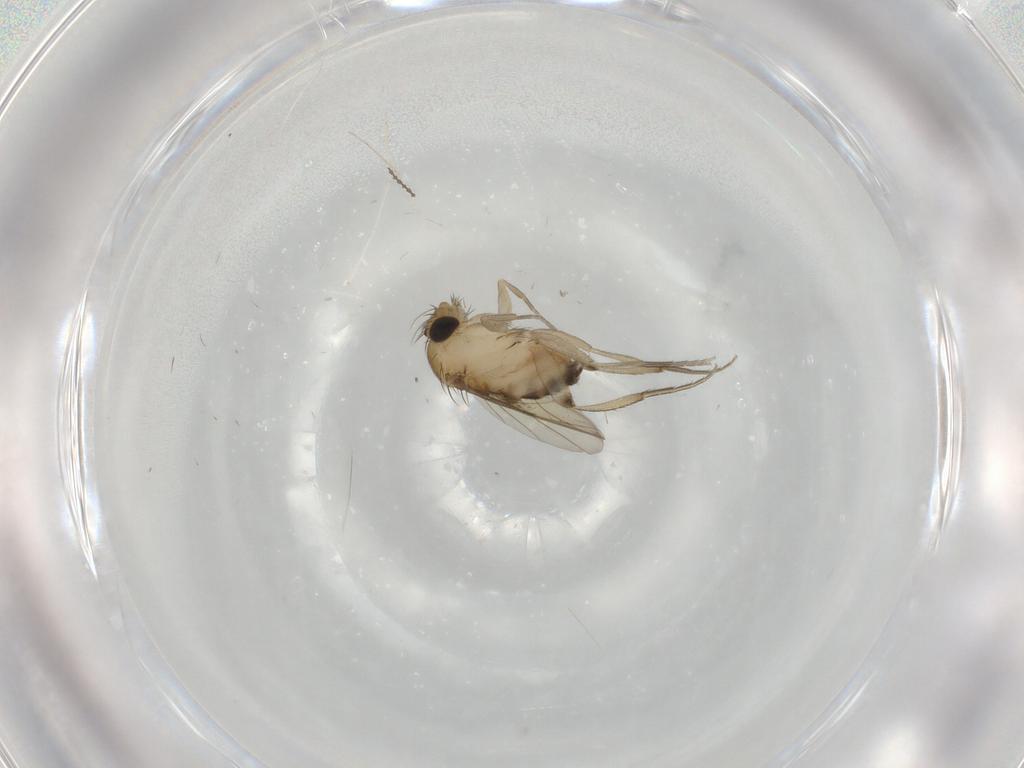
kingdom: Animalia
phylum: Arthropoda
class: Insecta
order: Diptera
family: Phoridae
